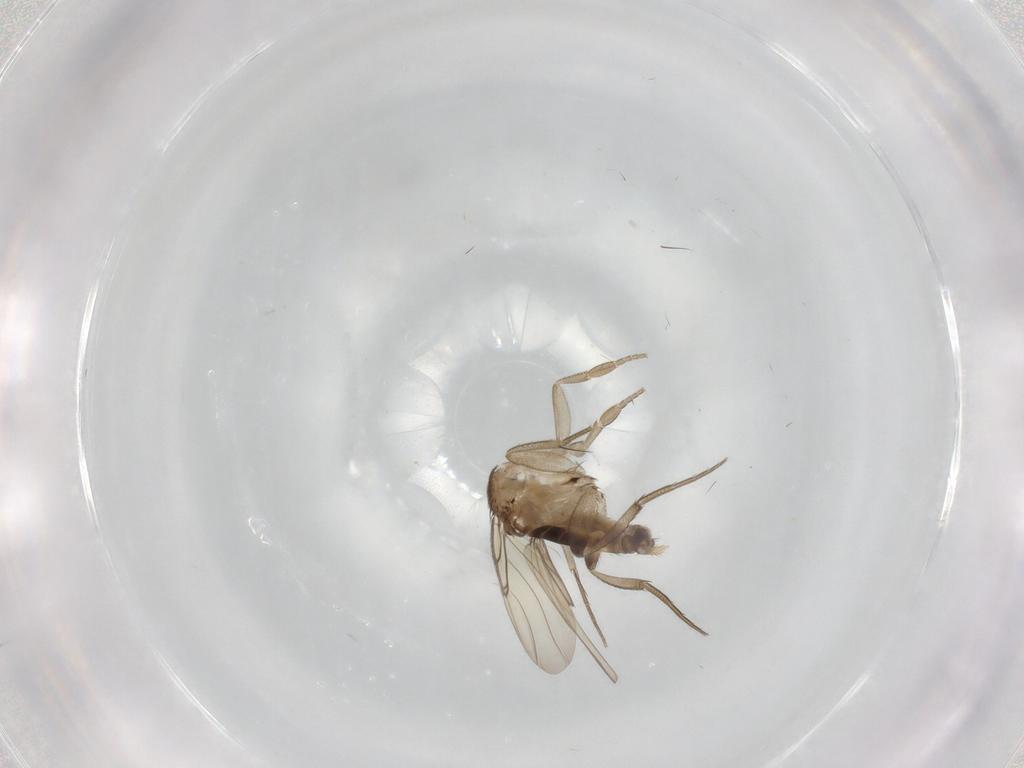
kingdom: Animalia
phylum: Arthropoda
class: Insecta
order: Diptera
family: Phoridae
